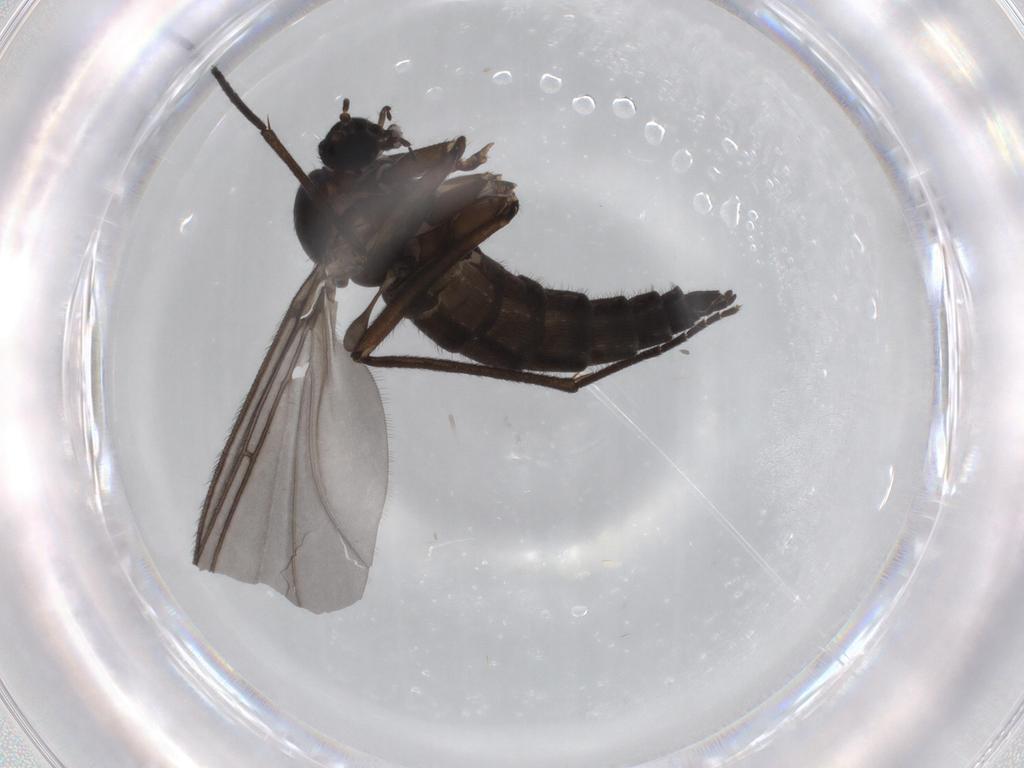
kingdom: Animalia
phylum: Arthropoda
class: Insecta
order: Diptera
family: Sciaridae
